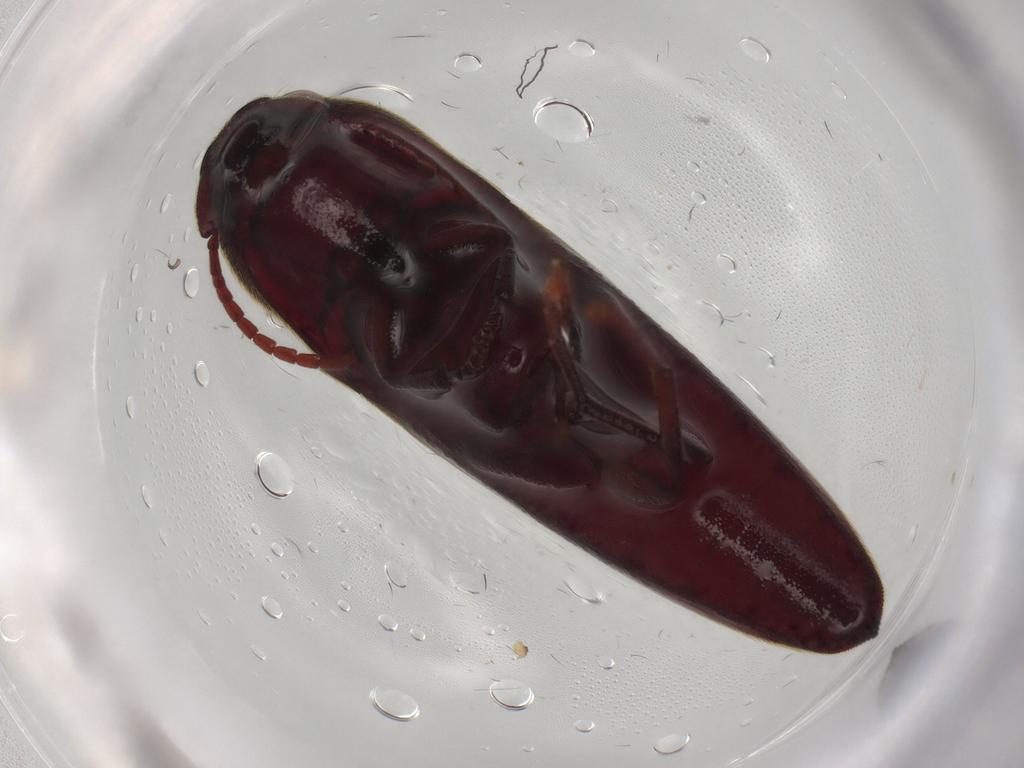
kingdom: Animalia
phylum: Arthropoda
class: Insecta
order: Coleoptera
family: Eucnemidae
